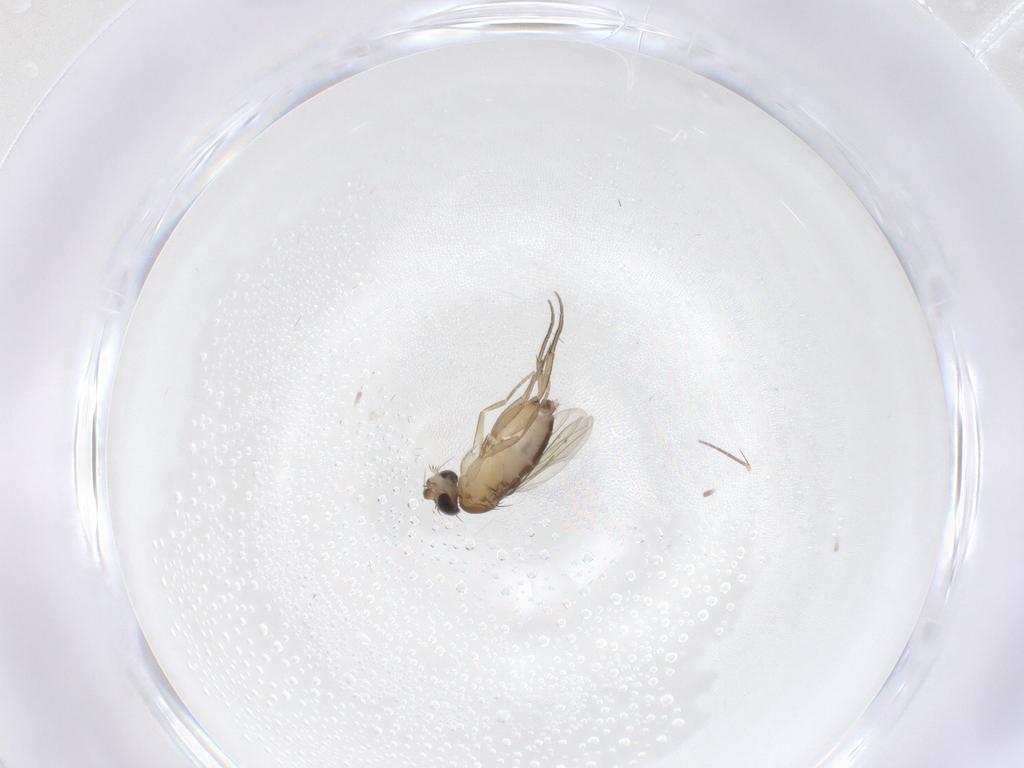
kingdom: Animalia
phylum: Arthropoda
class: Insecta
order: Diptera
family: Phoridae
